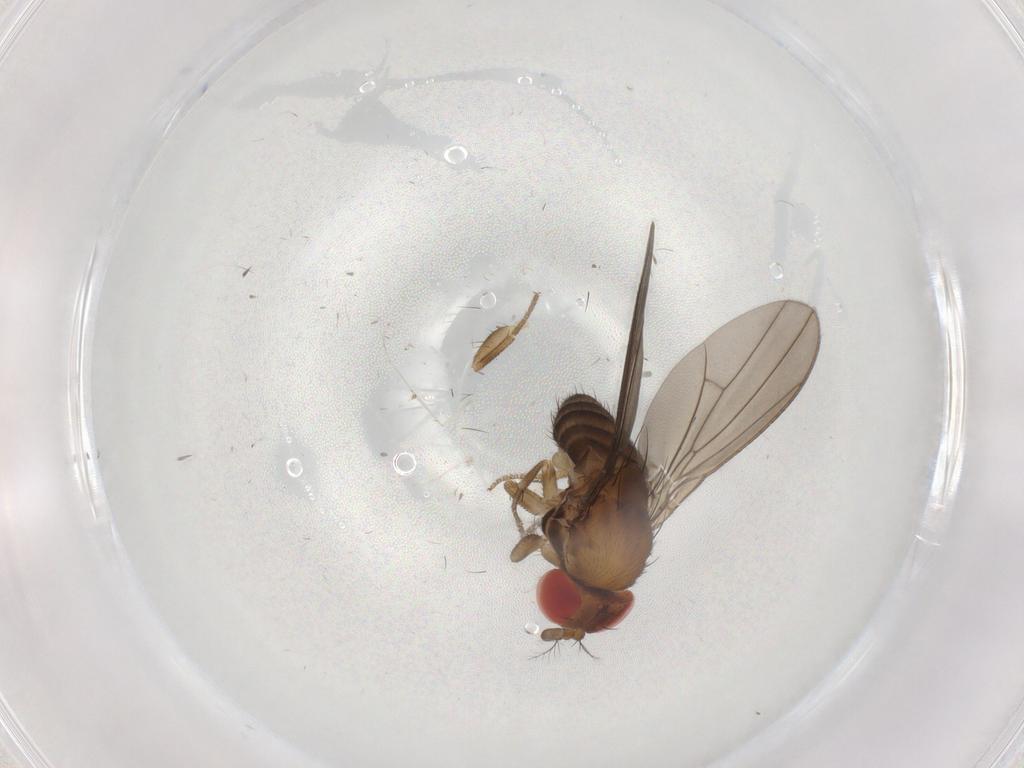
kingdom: Animalia
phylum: Arthropoda
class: Insecta
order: Diptera
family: Drosophilidae
